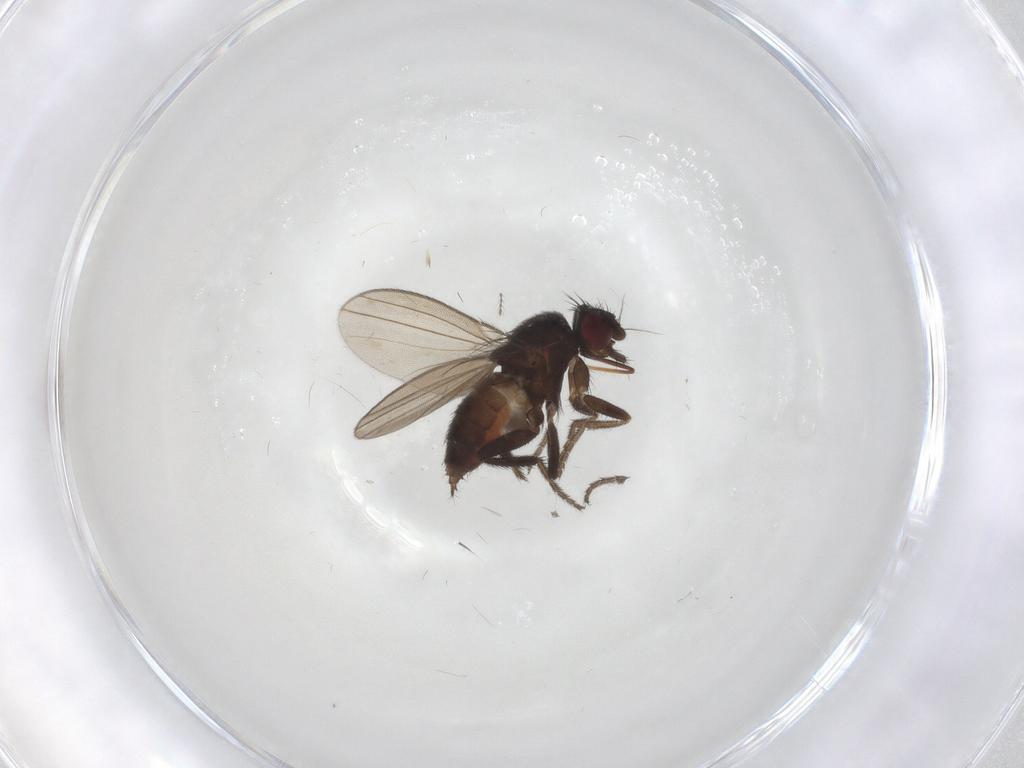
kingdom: Animalia
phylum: Arthropoda
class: Insecta
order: Diptera
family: Milichiidae
